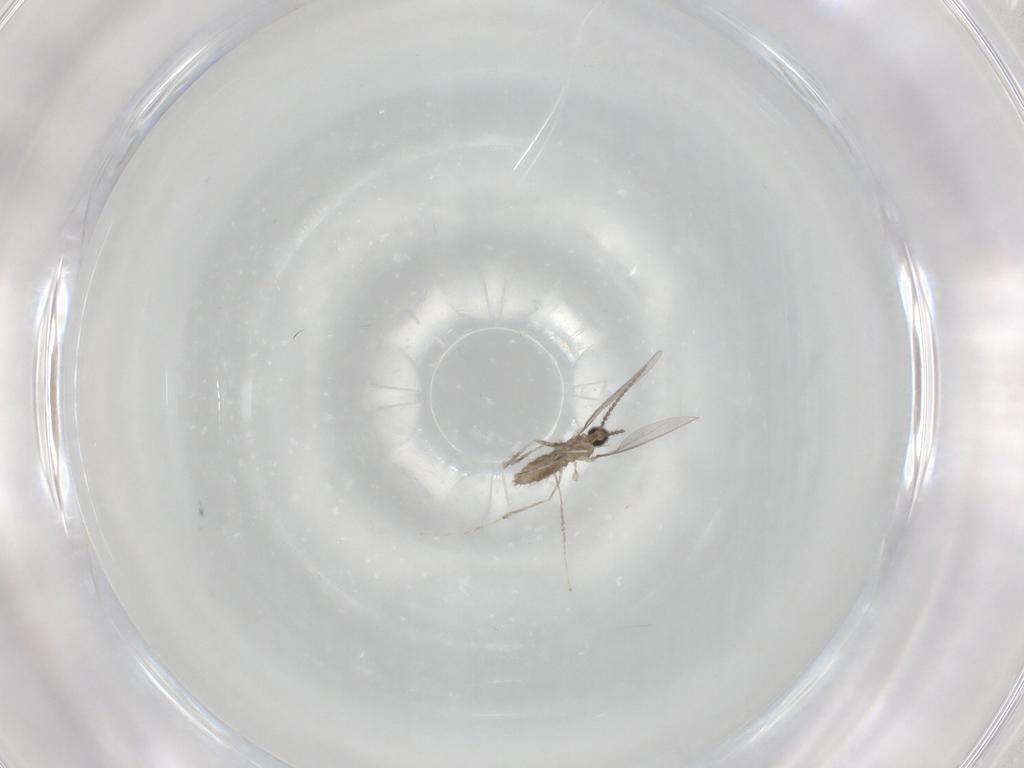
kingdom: Animalia
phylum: Arthropoda
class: Insecta
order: Diptera
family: Cecidomyiidae
